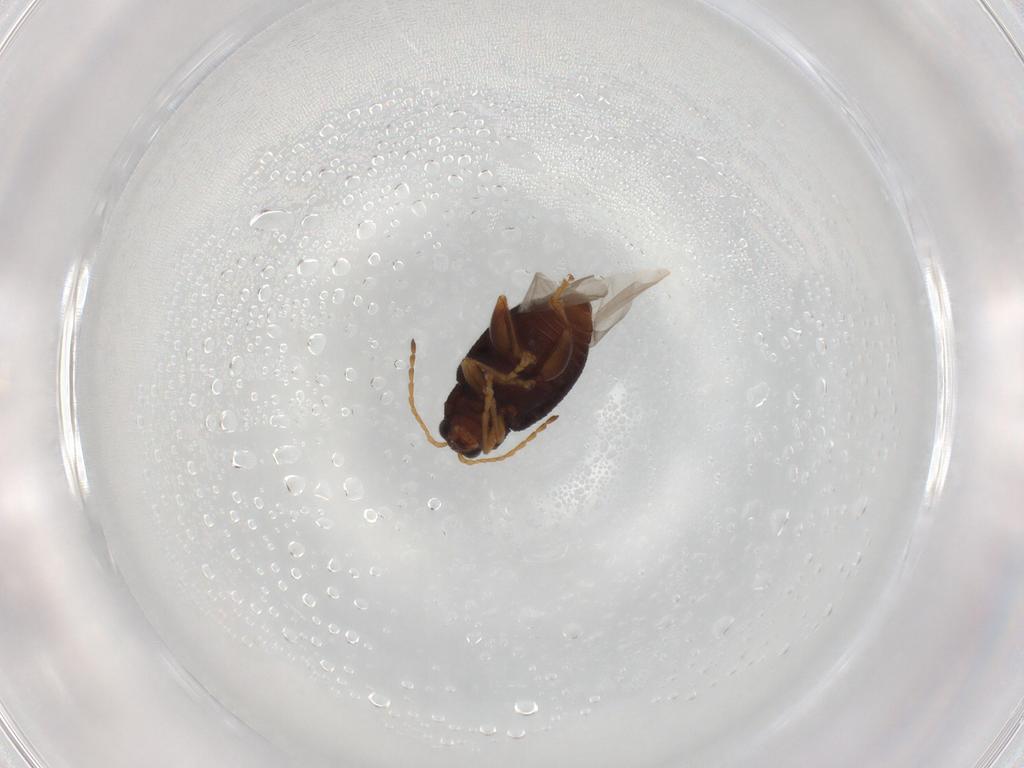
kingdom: Animalia
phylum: Arthropoda
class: Insecta
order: Coleoptera
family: Chrysomelidae
